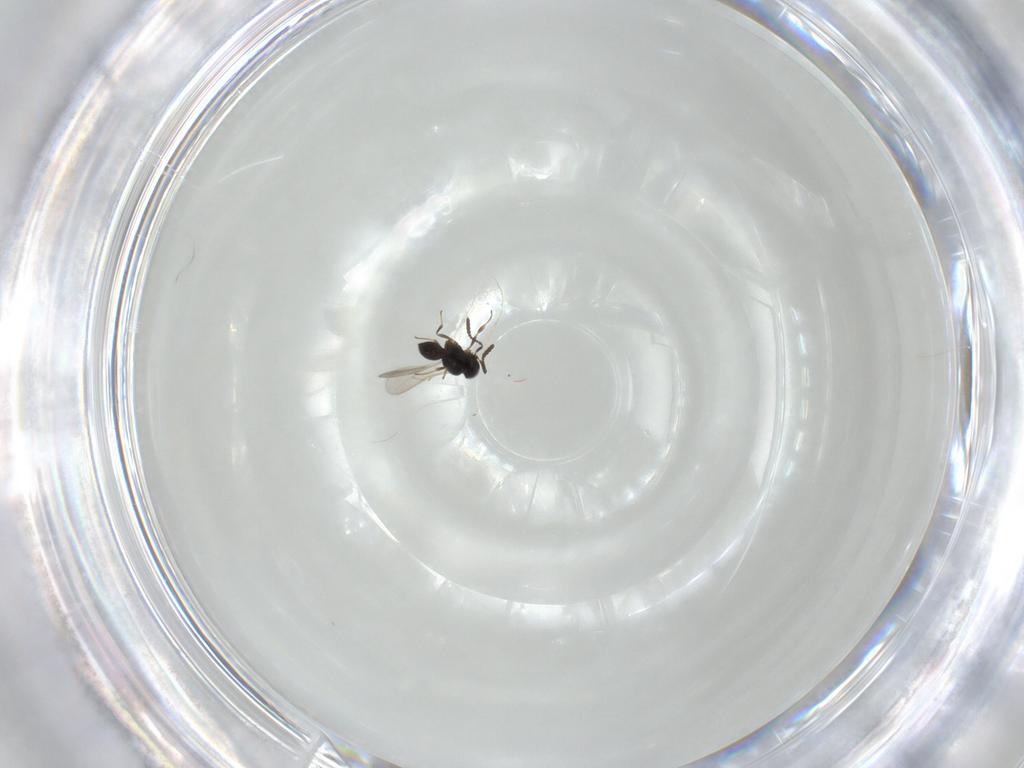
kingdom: Animalia
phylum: Arthropoda
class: Insecta
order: Hymenoptera
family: Scelionidae
